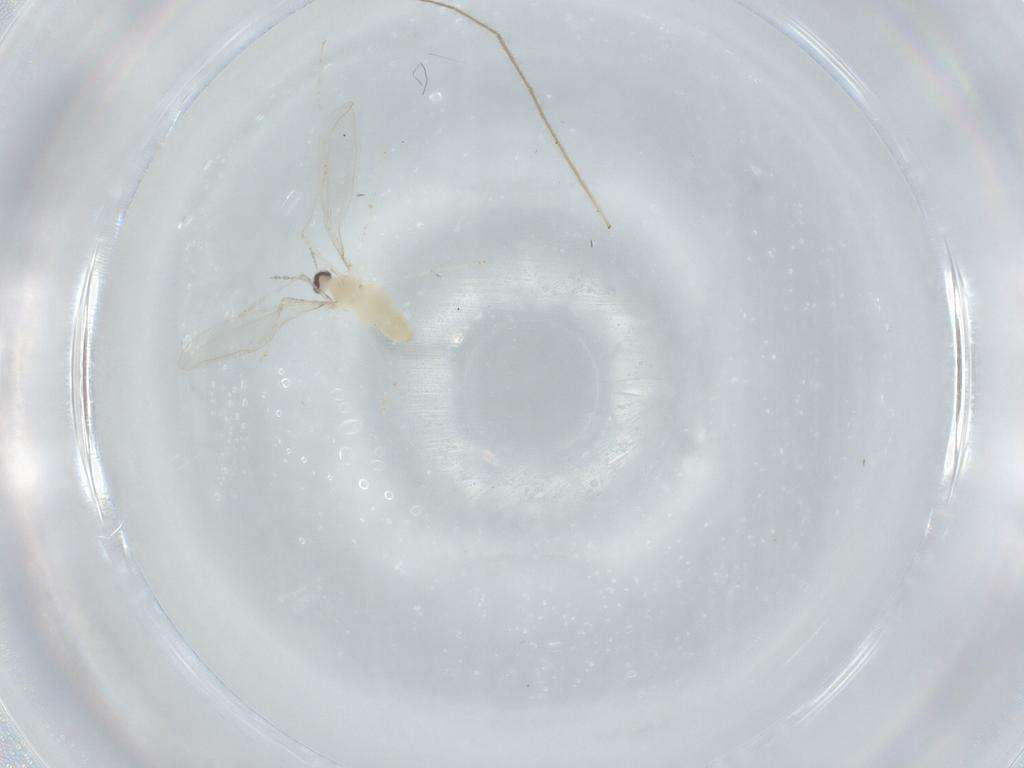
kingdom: Animalia
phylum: Arthropoda
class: Insecta
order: Diptera
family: Cecidomyiidae
